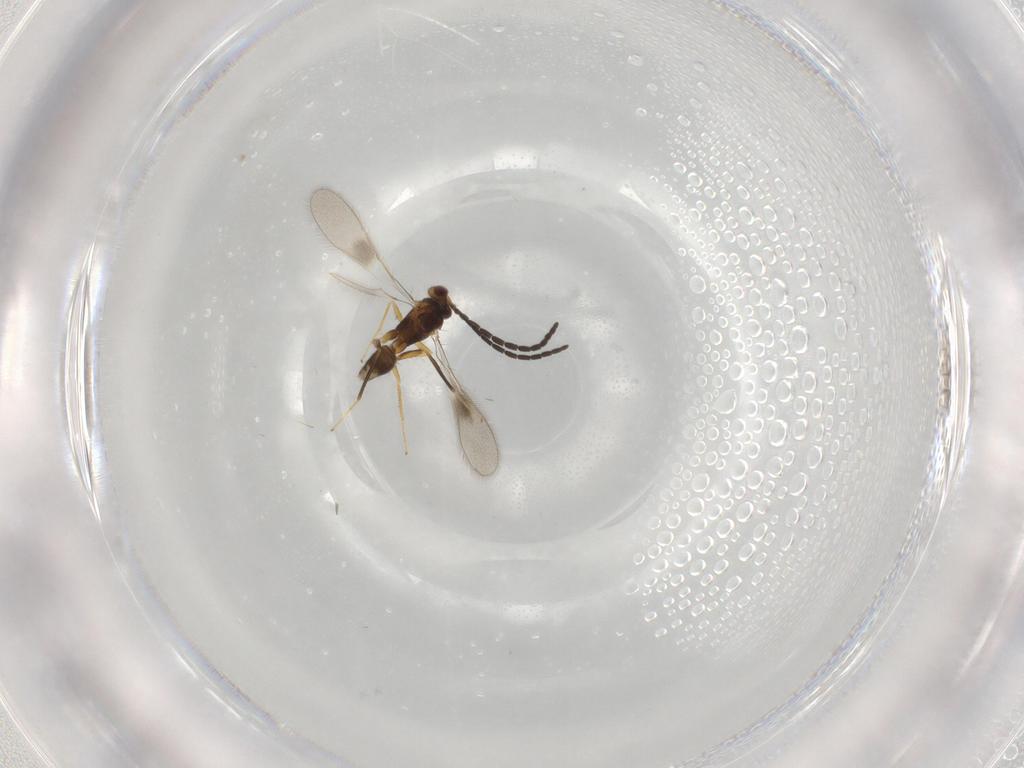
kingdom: Animalia
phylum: Arthropoda
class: Insecta
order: Hymenoptera
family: Mymaridae
